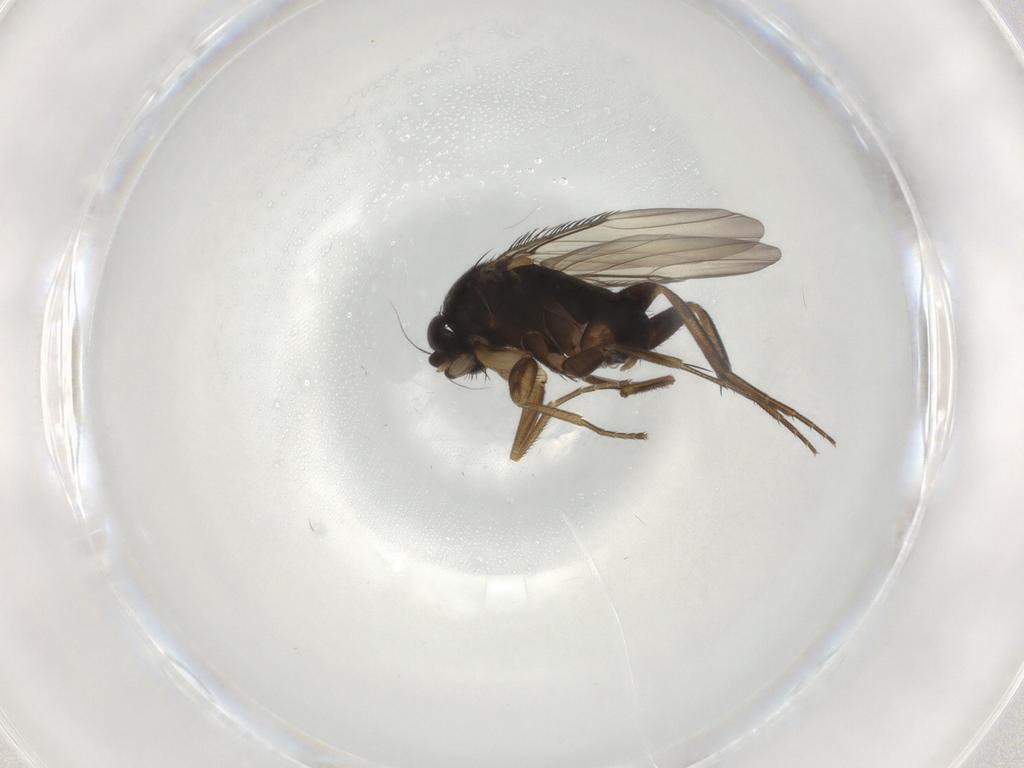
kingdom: Animalia
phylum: Arthropoda
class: Insecta
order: Diptera
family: Phoridae
